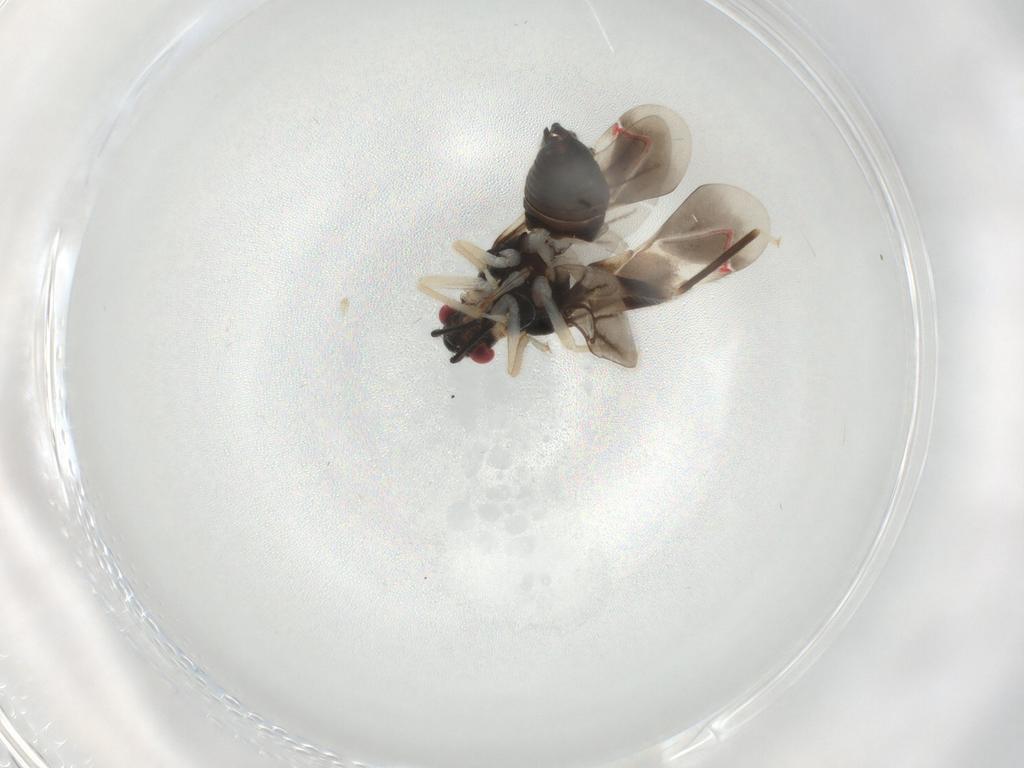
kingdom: Animalia
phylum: Arthropoda
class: Insecta
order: Hemiptera
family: Miridae
